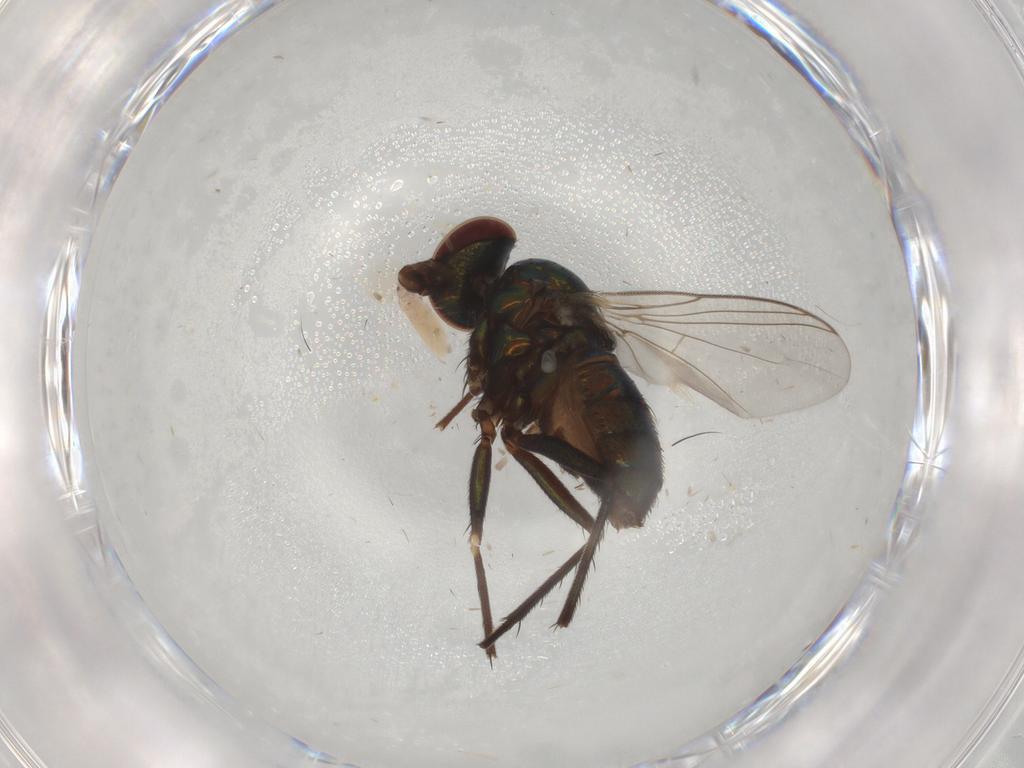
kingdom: Animalia
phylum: Arthropoda
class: Insecta
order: Diptera
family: Dolichopodidae
